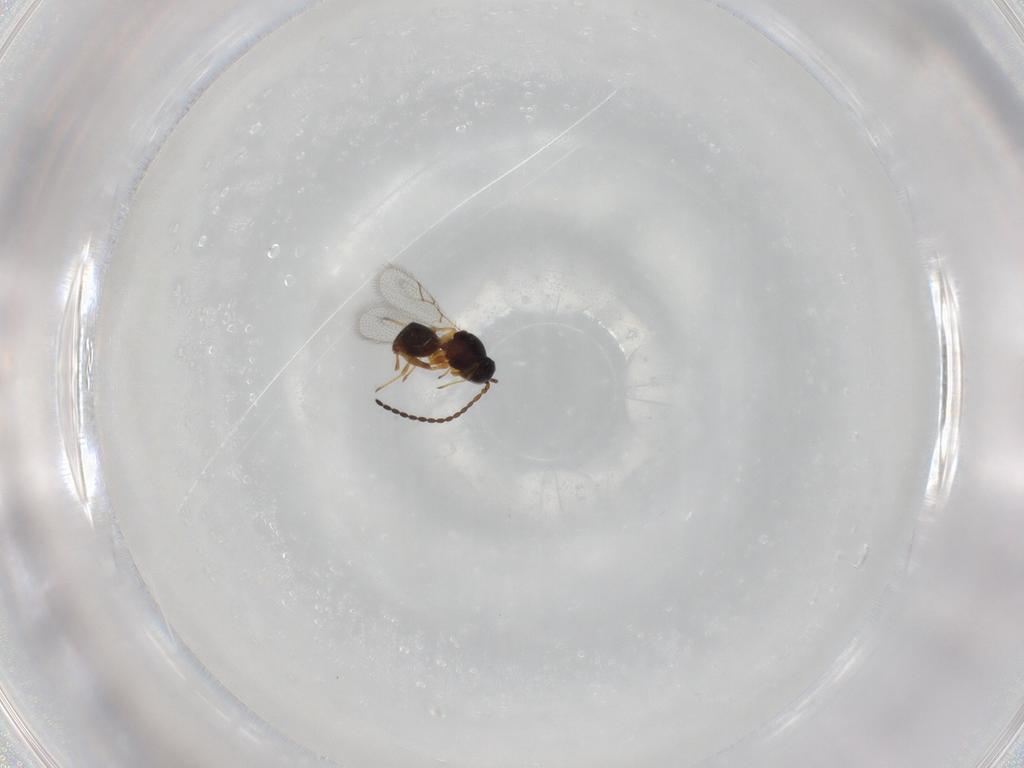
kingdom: Animalia
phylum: Arthropoda
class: Insecta
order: Hymenoptera
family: Figitidae
